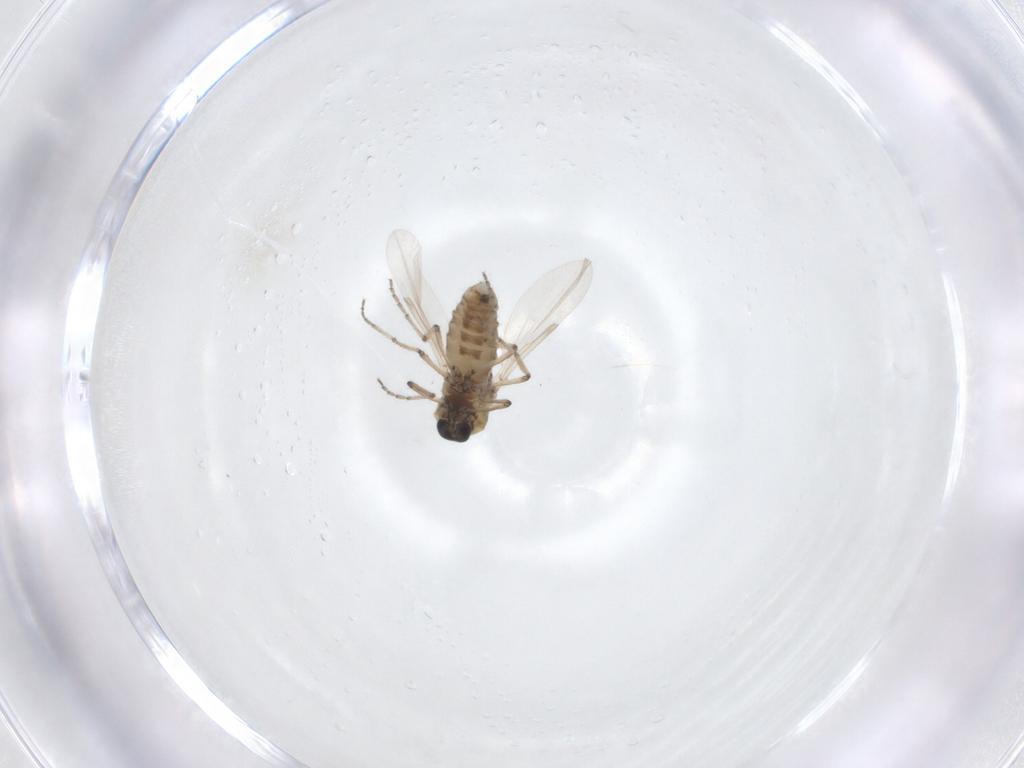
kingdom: Animalia
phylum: Arthropoda
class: Insecta
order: Diptera
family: Ceratopogonidae
